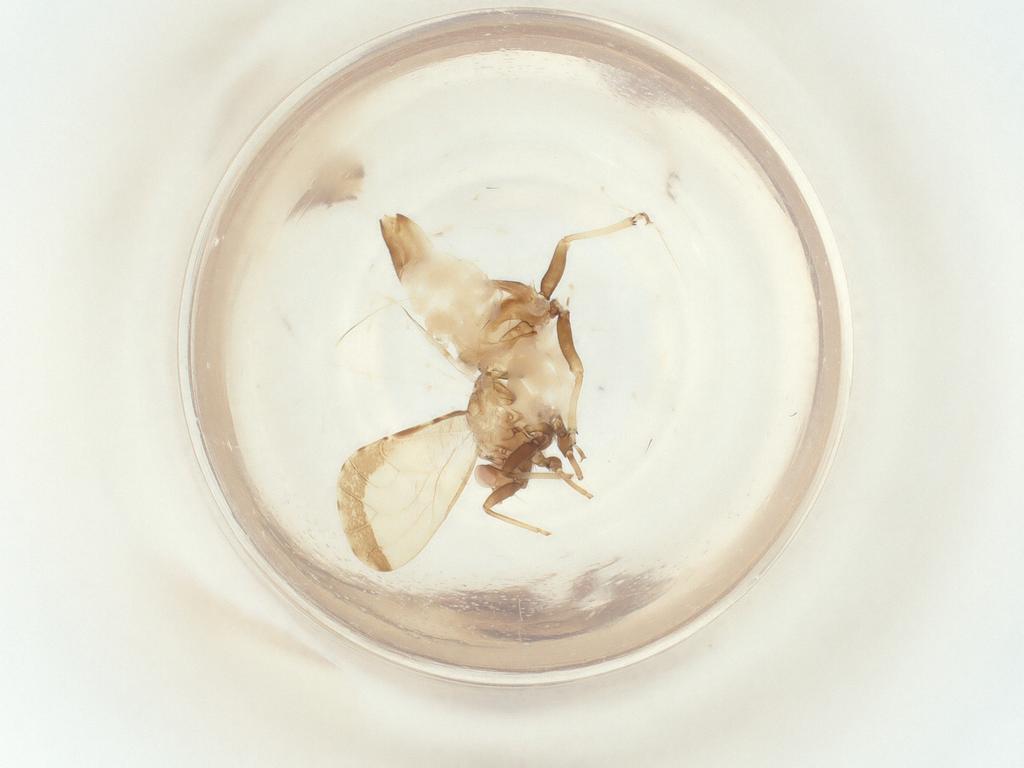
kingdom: Animalia
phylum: Arthropoda
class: Insecta
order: Diptera
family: Simuliidae
